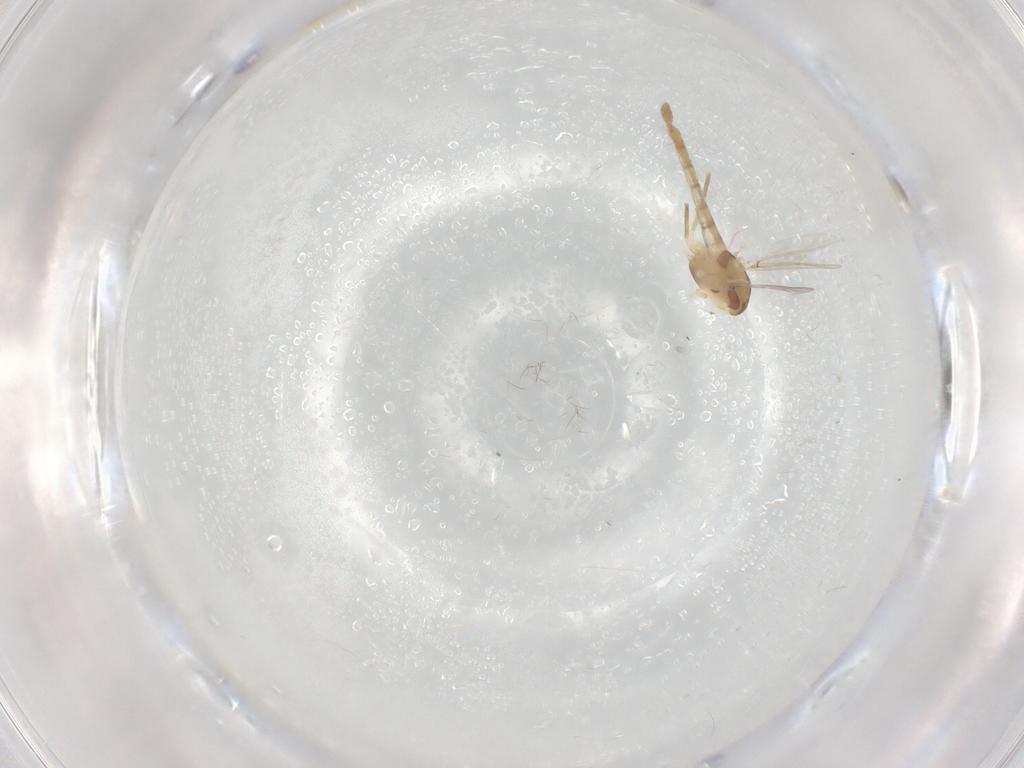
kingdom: Animalia
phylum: Arthropoda
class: Insecta
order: Diptera
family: Chironomidae
